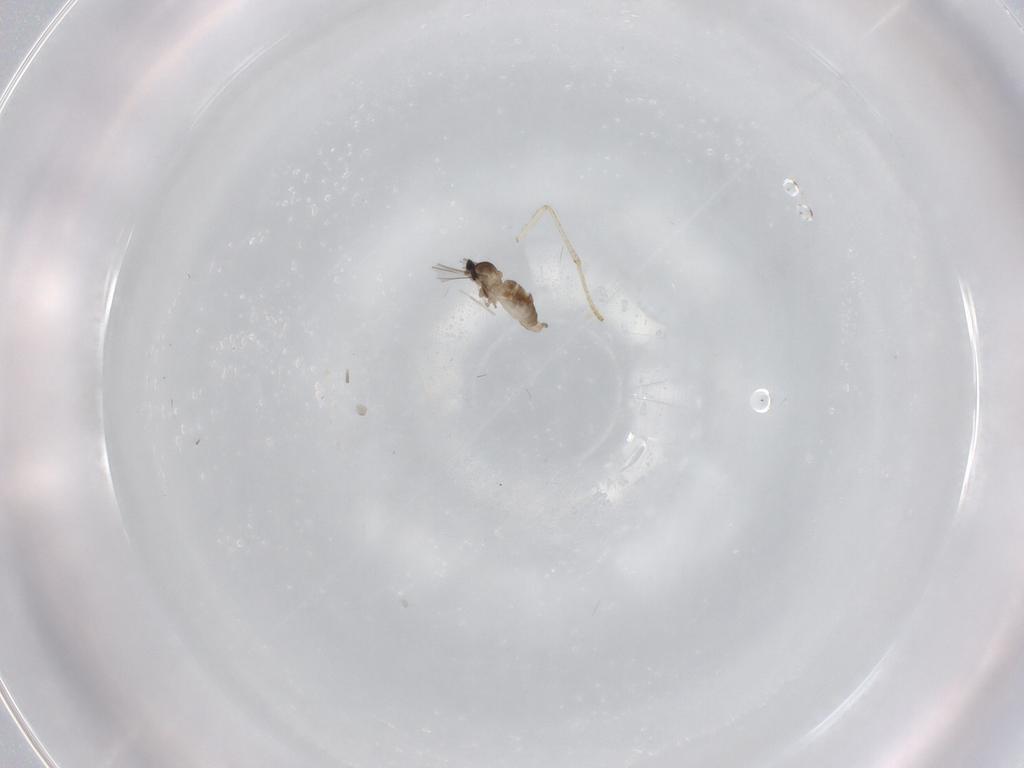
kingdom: Animalia
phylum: Arthropoda
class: Insecta
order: Diptera
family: Cecidomyiidae
